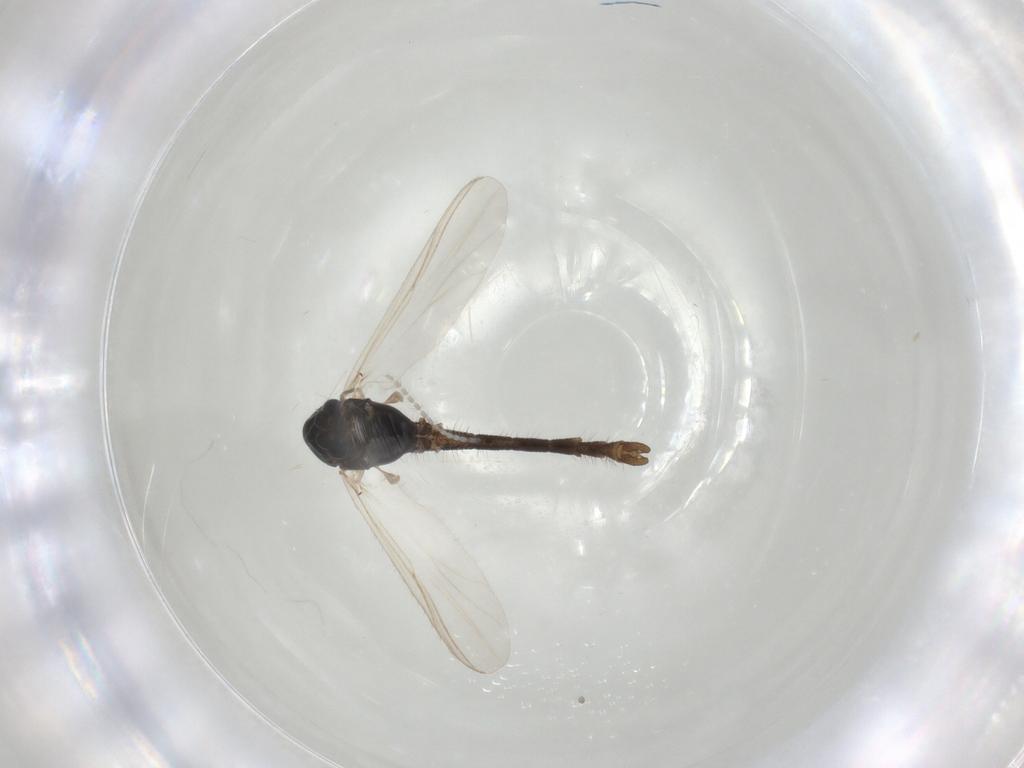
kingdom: Animalia
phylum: Arthropoda
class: Insecta
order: Diptera
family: Chironomidae
